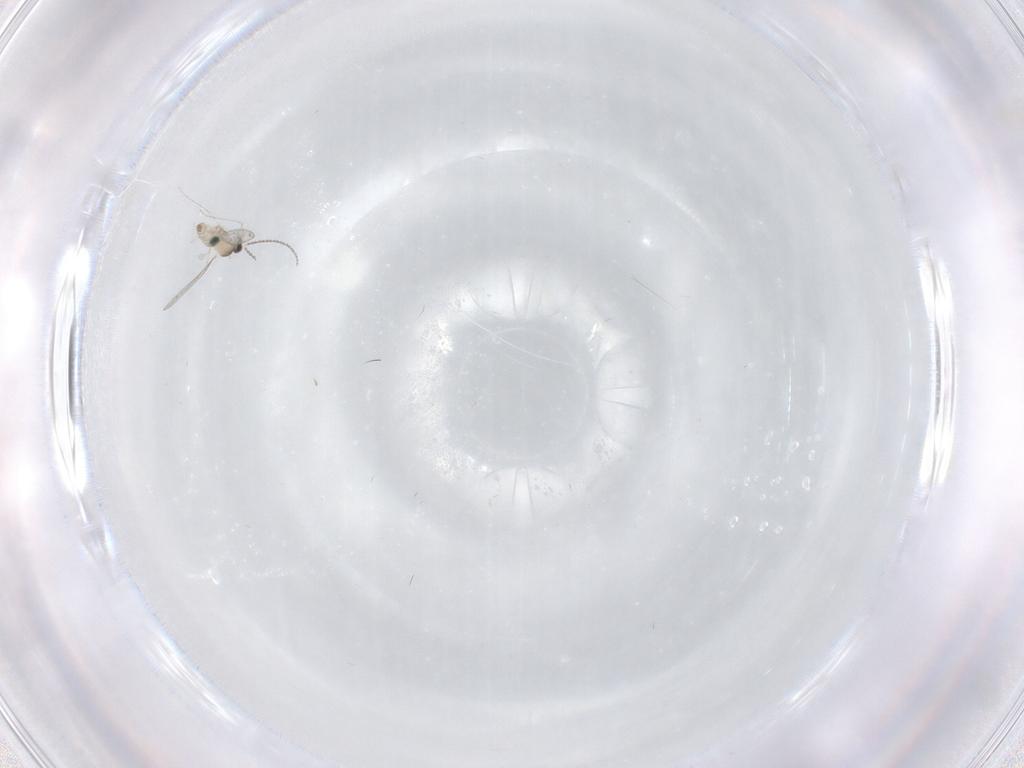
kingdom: Animalia
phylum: Arthropoda
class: Insecta
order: Diptera
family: Cecidomyiidae
